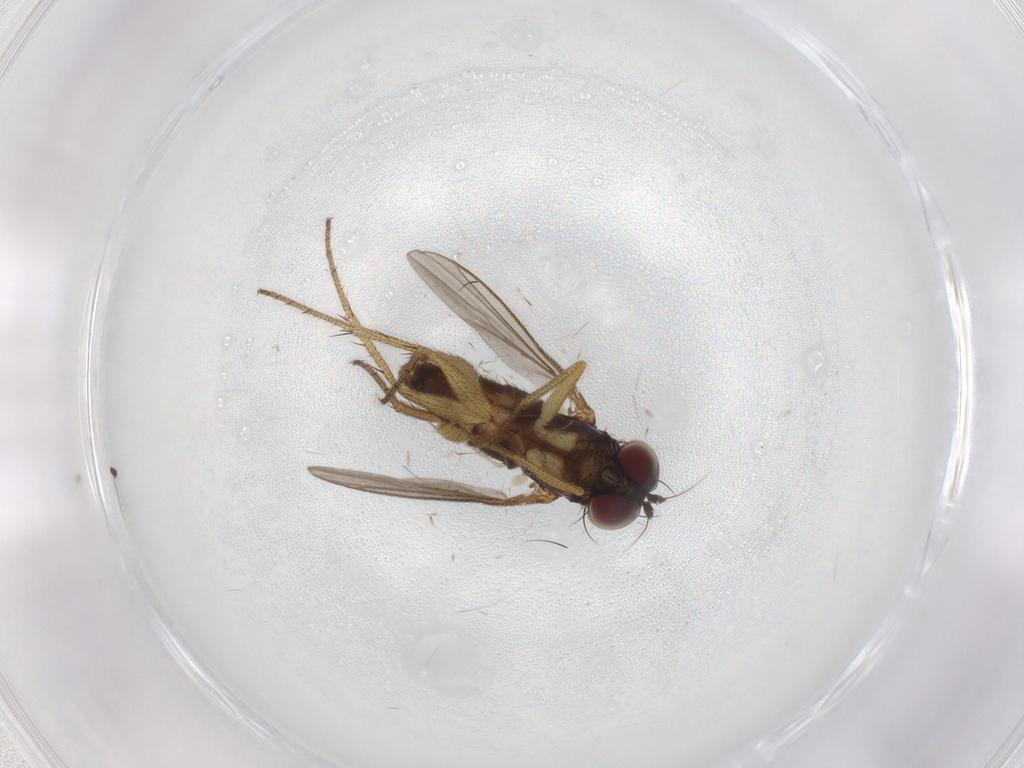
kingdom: Animalia
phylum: Arthropoda
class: Insecta
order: Diptera
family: Chironomidae
